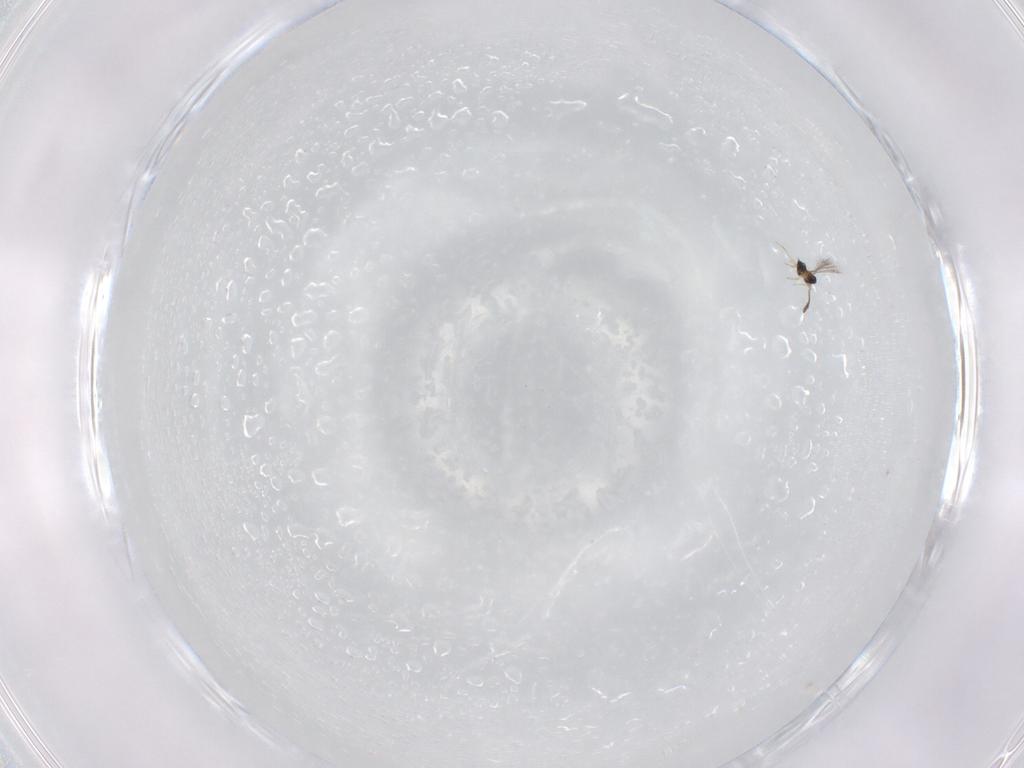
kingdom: Animalia
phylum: Arthropoda
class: Insecta
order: Hymenoptera
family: Mymaridae
